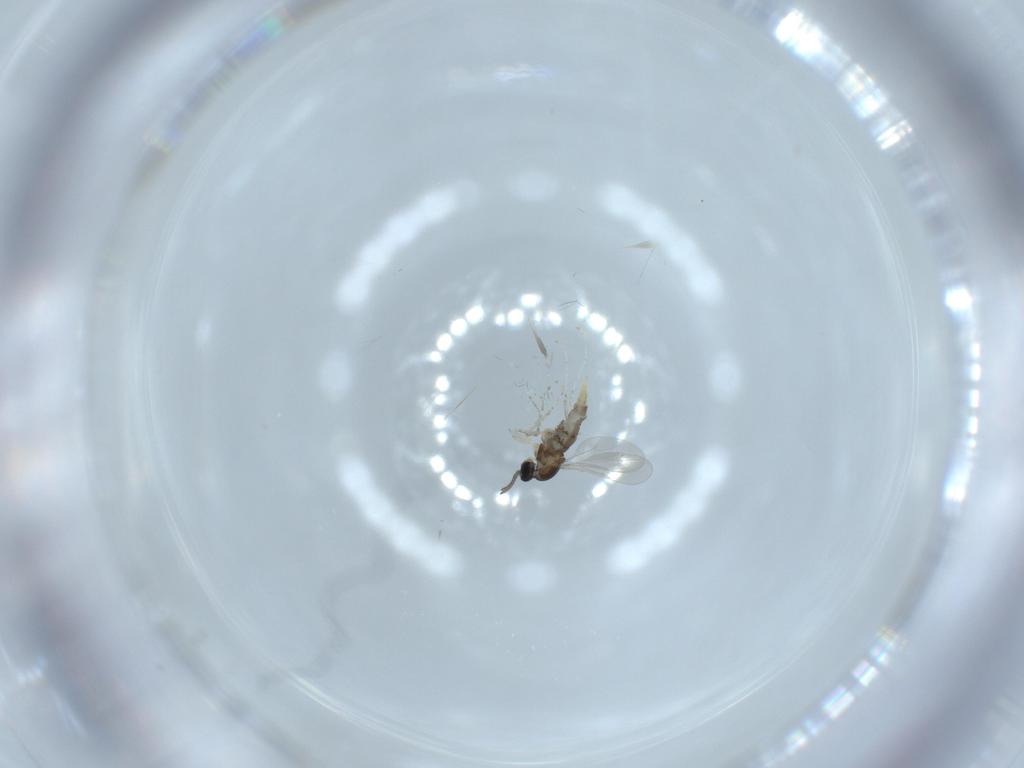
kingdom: Animalia
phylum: Arthropoda
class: Insecta
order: Diptera
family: Cecidomyiidae
